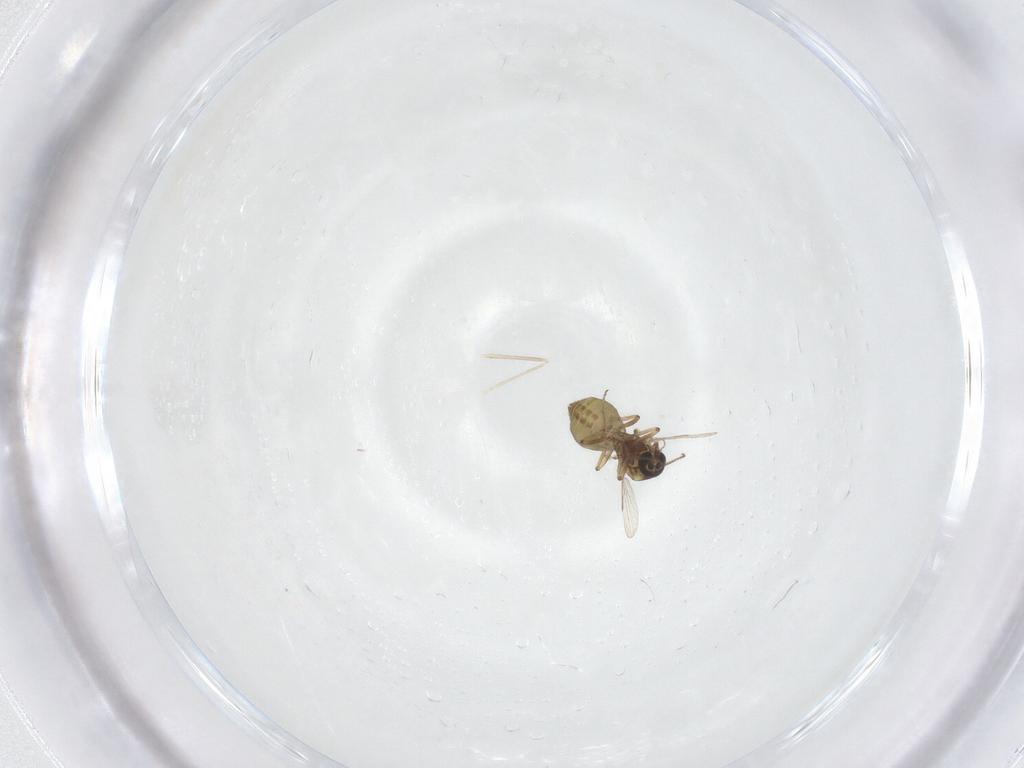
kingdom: Animalia
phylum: Arthropoda
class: Insecta
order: Diptera
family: Ceratopogonidae
